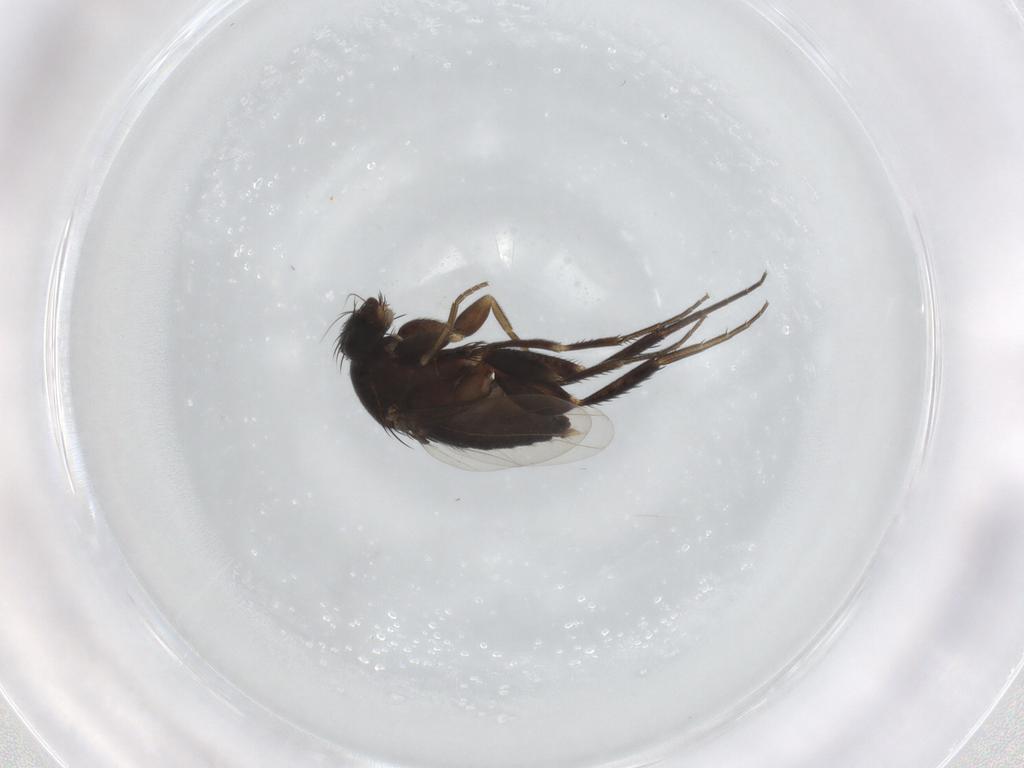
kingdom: Animalia
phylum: Arthropoda
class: Insecta
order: Diptera
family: Phoridae
